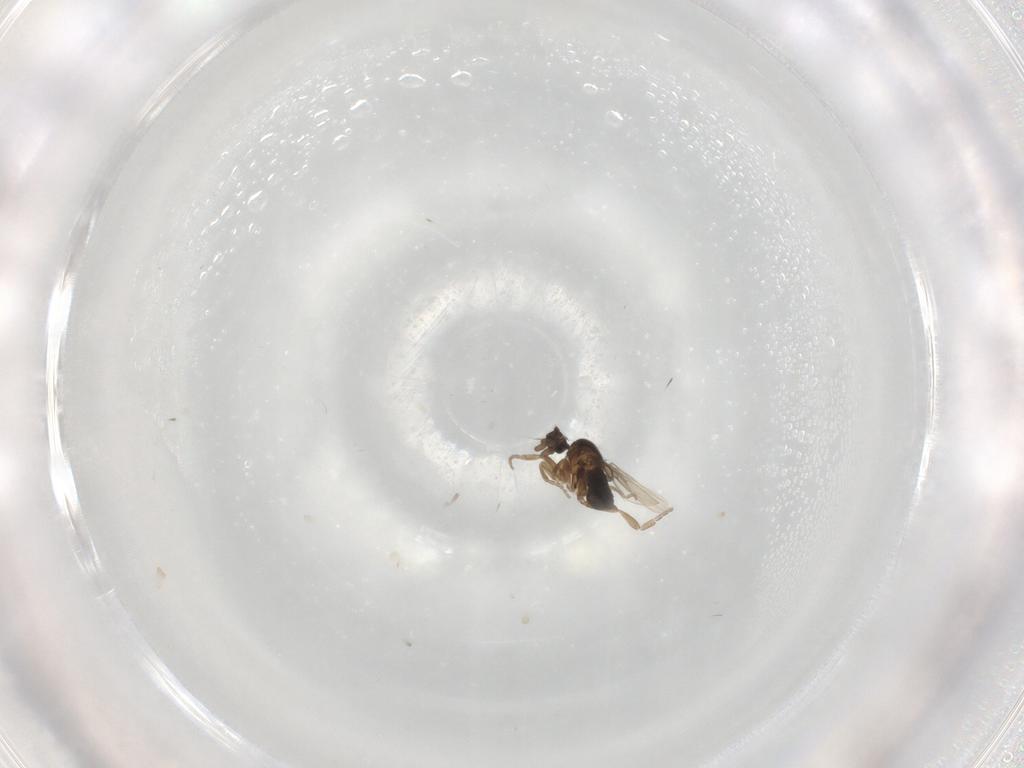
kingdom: Animalia
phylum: Arthropoda
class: Insecta
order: Diptera
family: Phoridae
